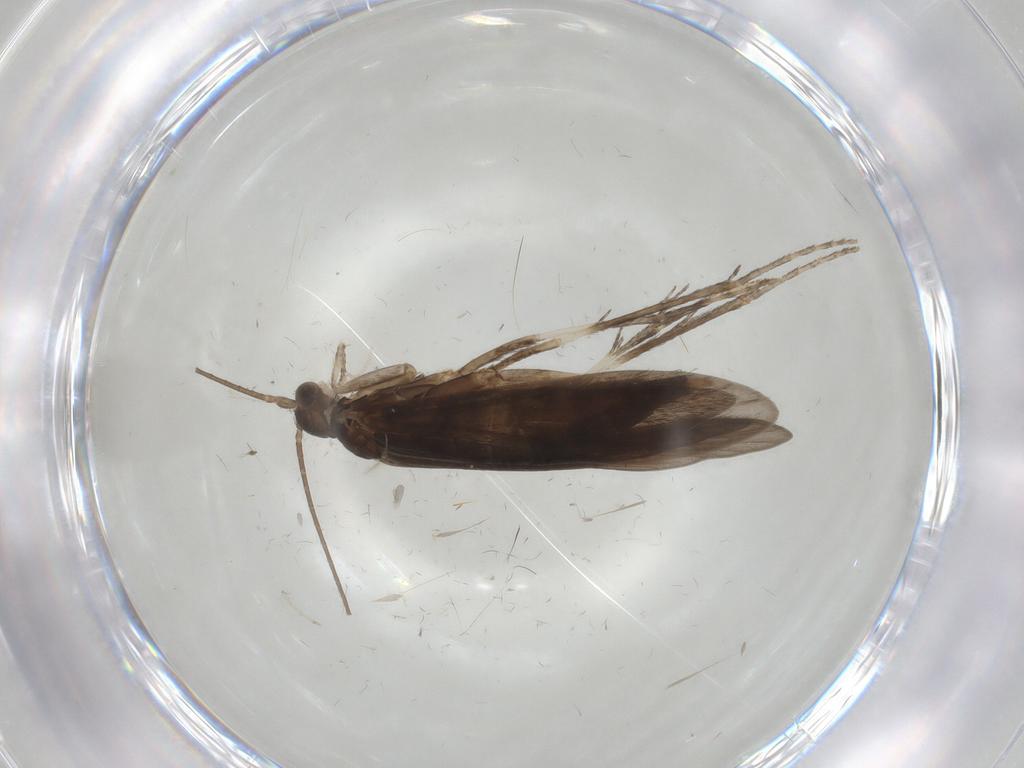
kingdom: Animalia
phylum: Arthropoda
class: Insecta
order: Trichoptera
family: Xiphocentronidae
